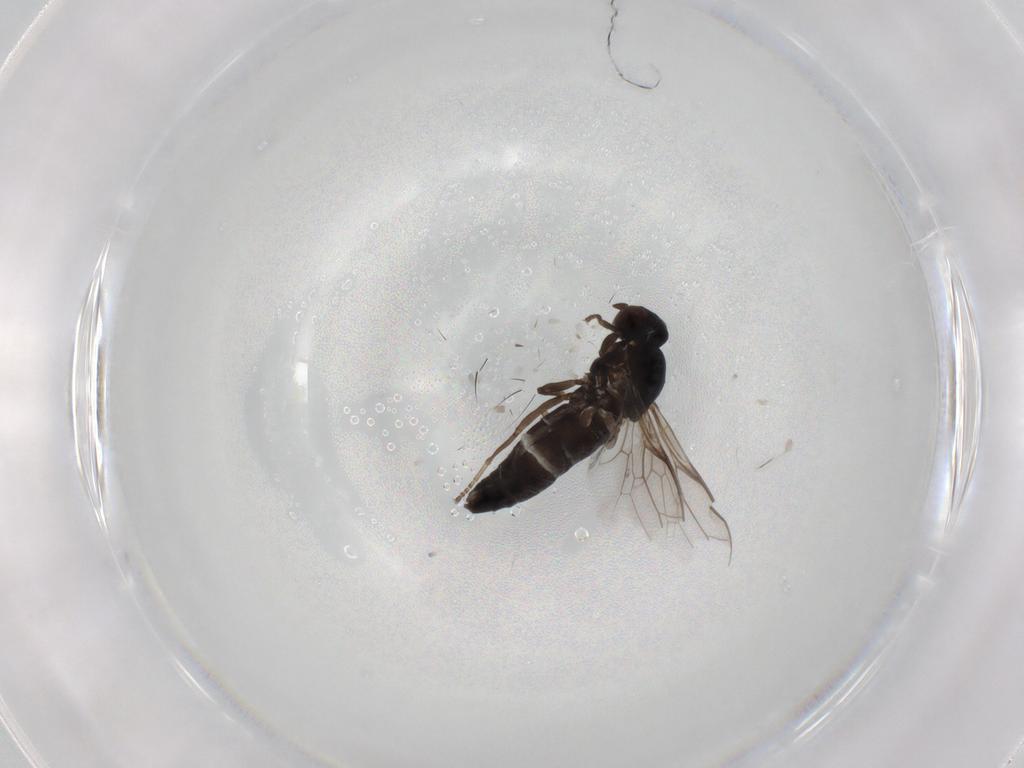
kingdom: Animalia
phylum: Arthropoda
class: Insecta
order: Diptera
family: Scenopinidae
